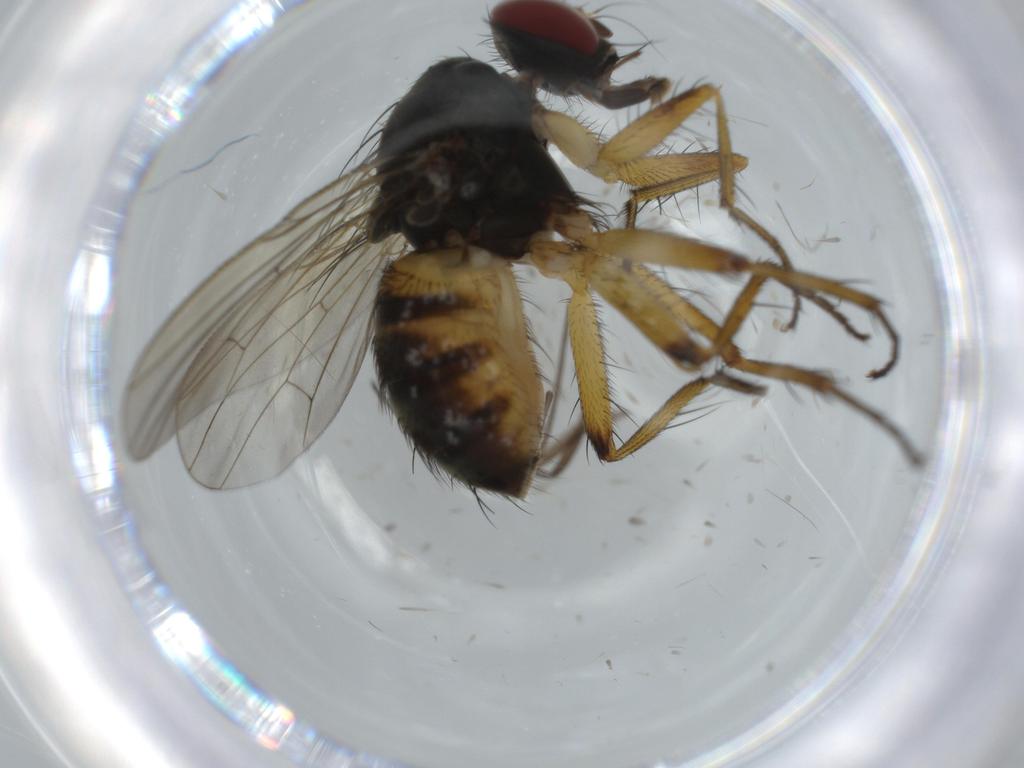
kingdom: Animalia
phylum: Arthropoda
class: Insecta
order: Diptera
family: Muscidae
